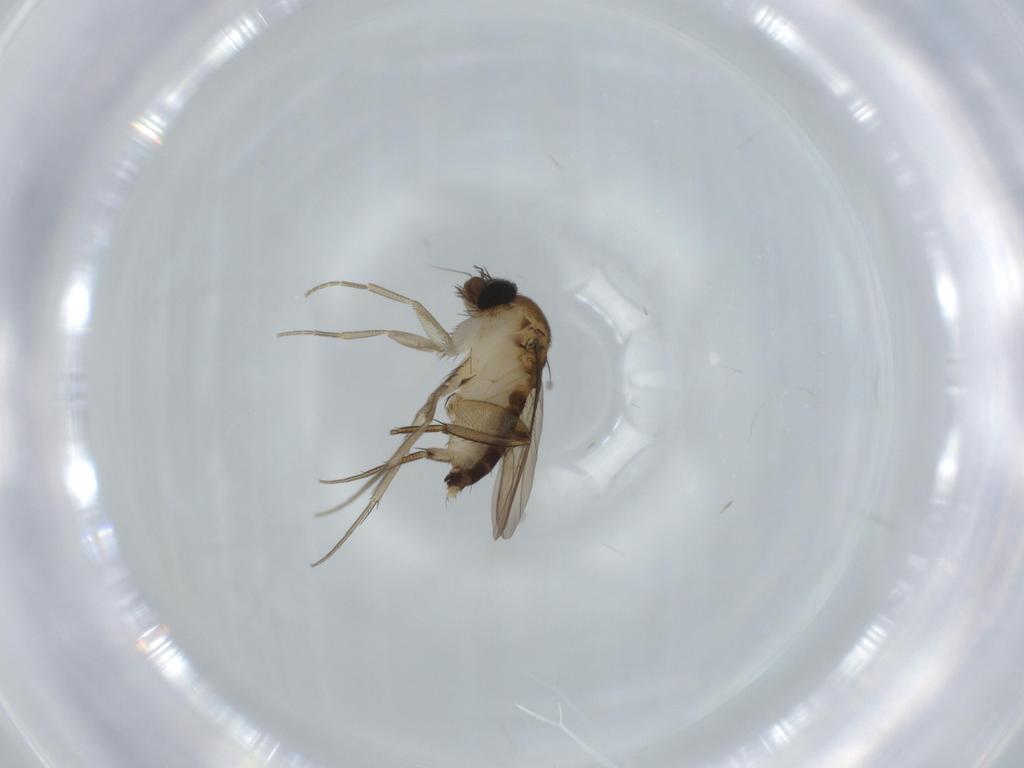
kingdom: Animalia
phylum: Arthropoda
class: Insecta
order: Diptera
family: Phoridae
